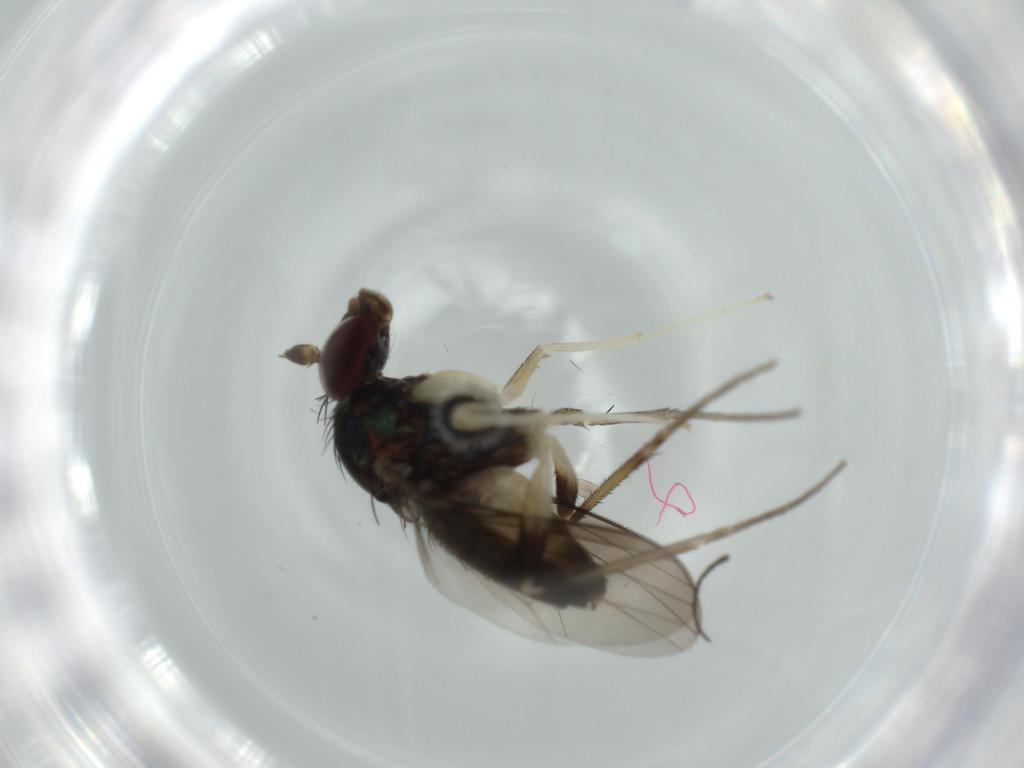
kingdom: Animalia
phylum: Arthropoda
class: Insecta
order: Diptera
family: Dolichopodidae
